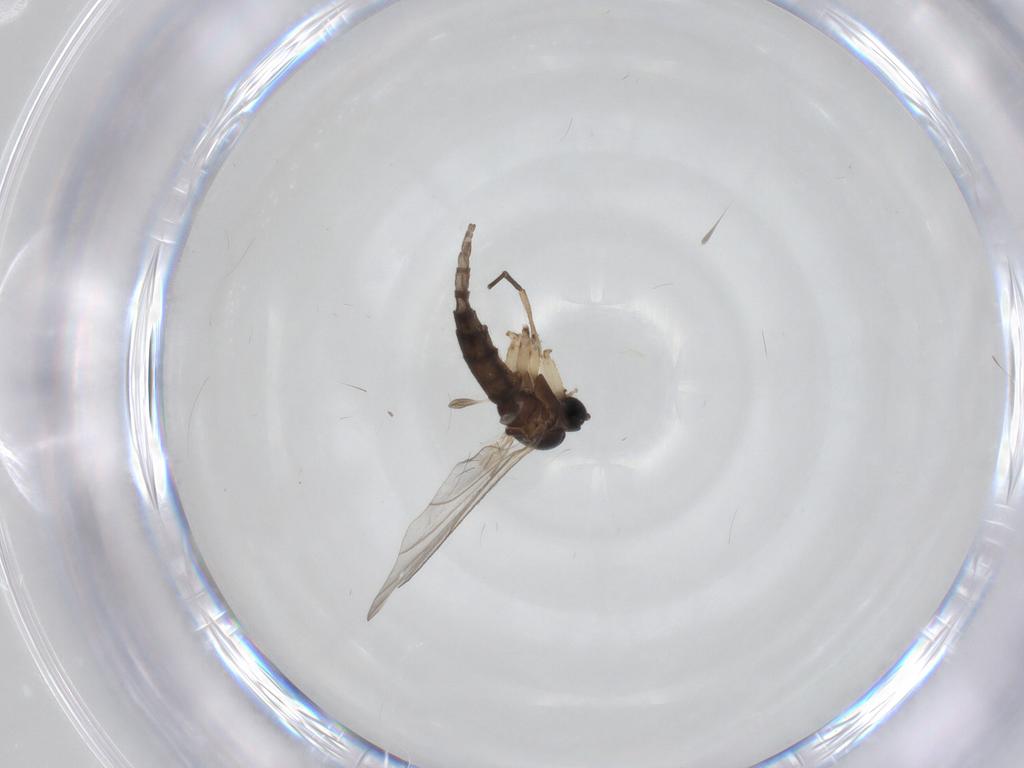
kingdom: Animalia
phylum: Arthropoda
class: Insecta
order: Diptera
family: Sciaridae
